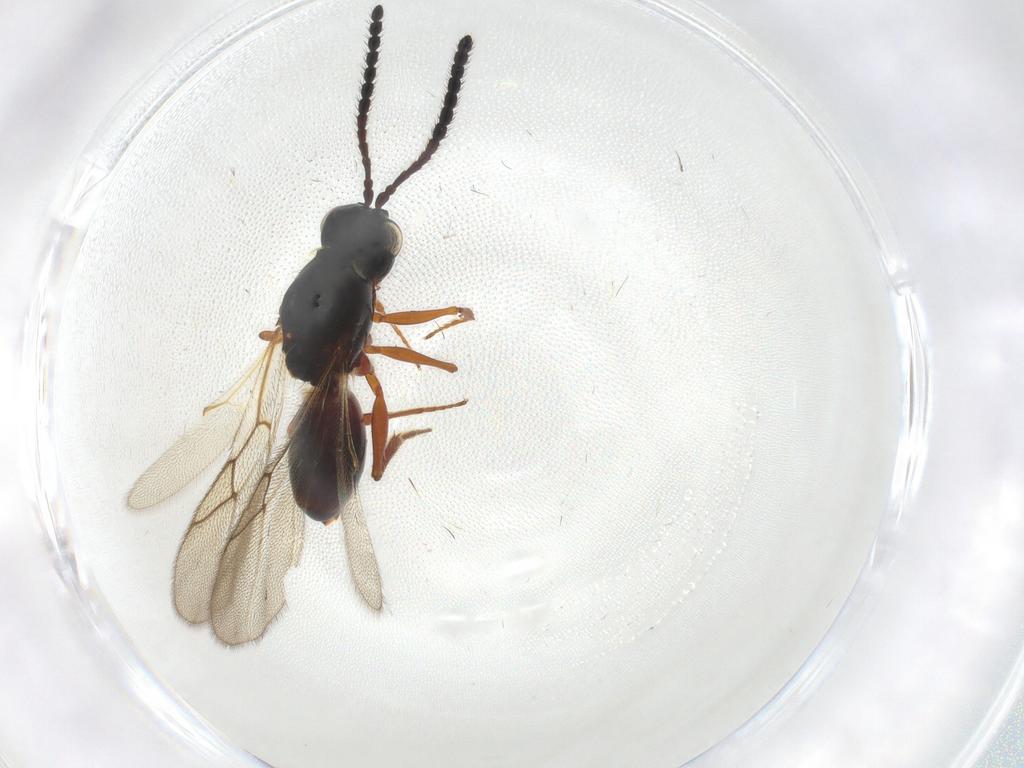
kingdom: Animalia
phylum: Arthropoda
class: Insecta
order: Hymenoptera
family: Figitidae
